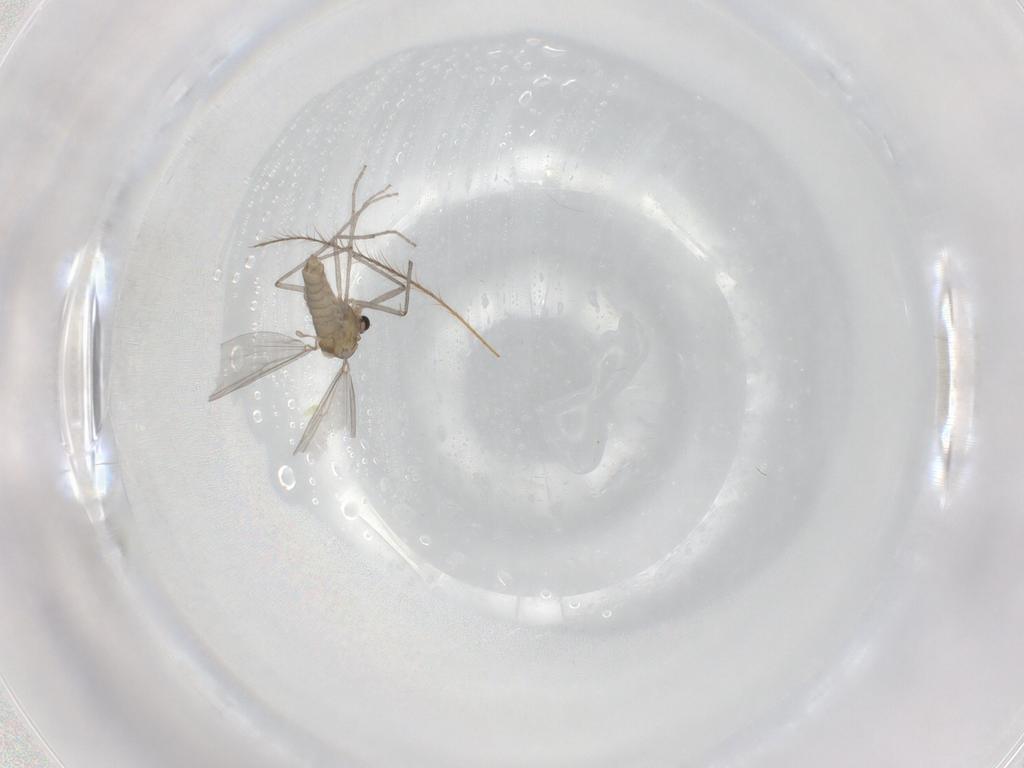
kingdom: Animalia
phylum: Arthropoda
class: Insecta
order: Diptera
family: Chironomidae
